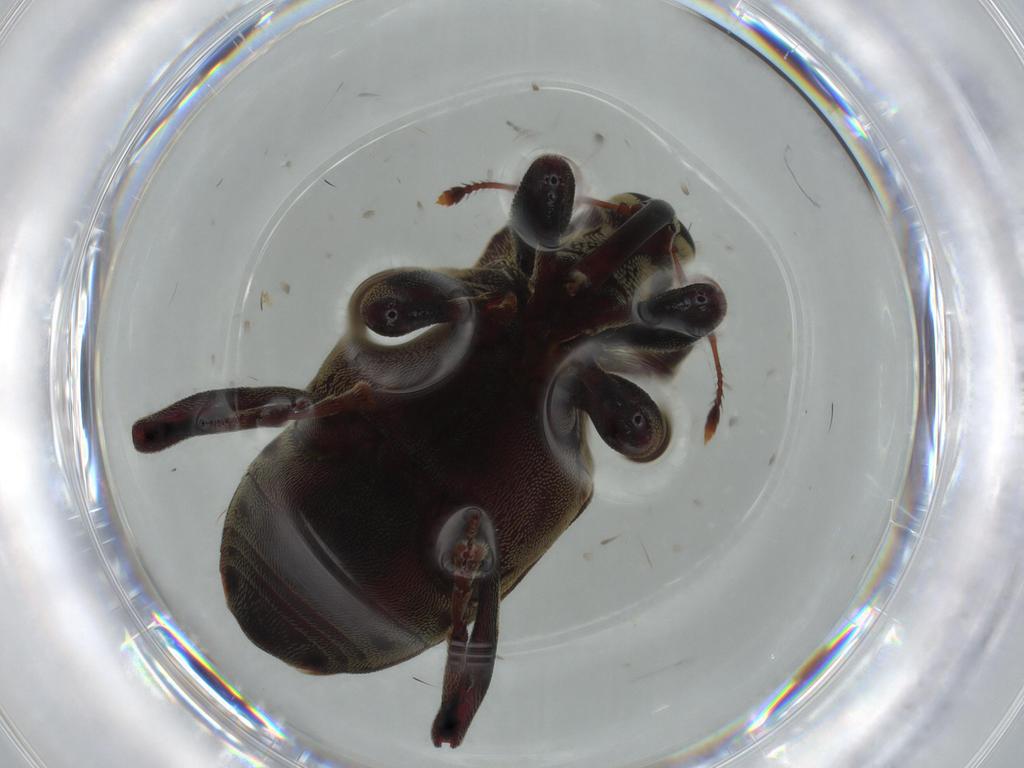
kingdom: Animalia
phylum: Arthropoda
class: Insecta
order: Coleoptera
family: Curculionidae
